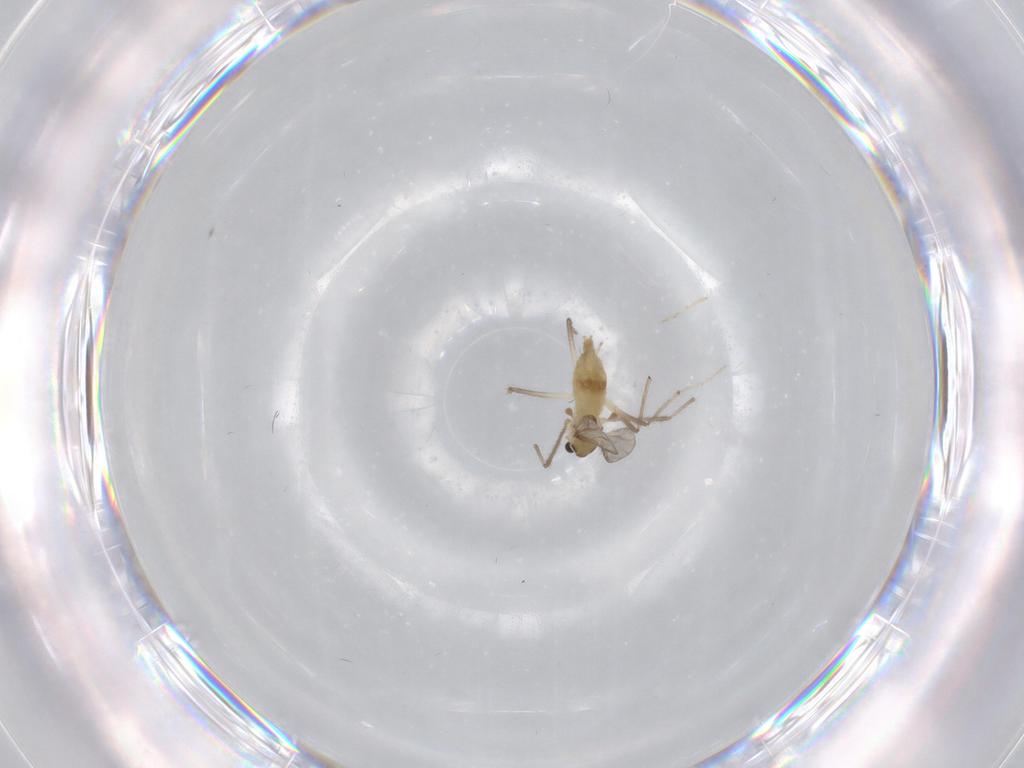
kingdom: Animalia
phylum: Arthropoda
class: Insecta
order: Diptera
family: Chironomidae
